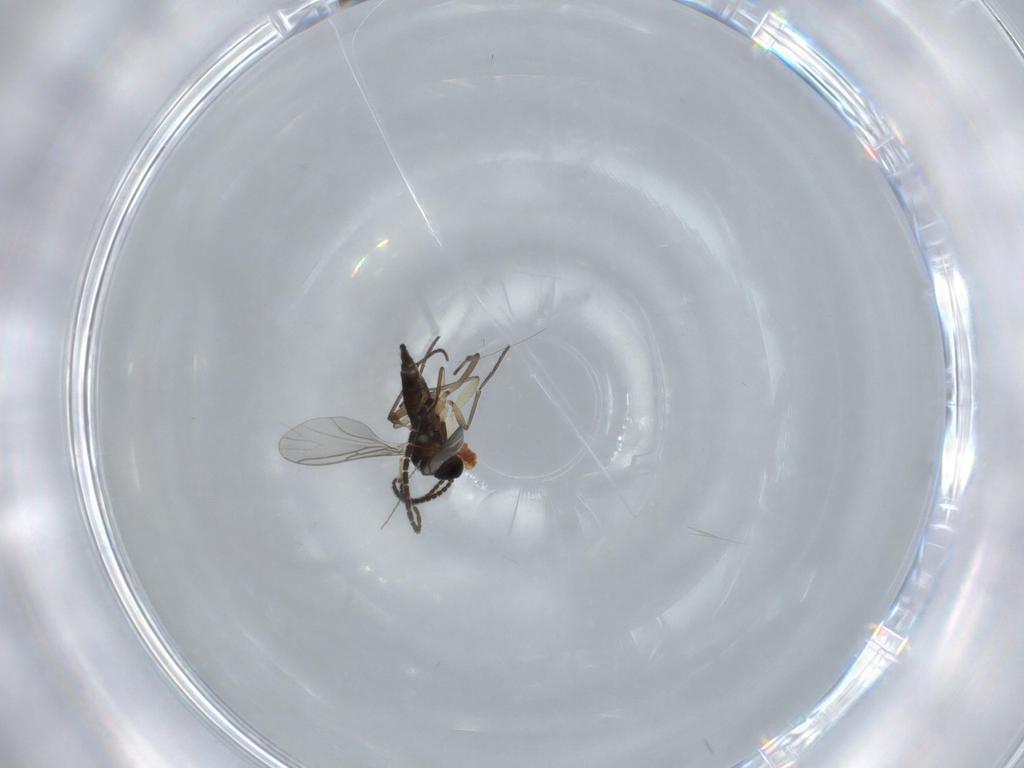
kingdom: Animalia
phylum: Arthropoda
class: Insecta
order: Diptera
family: Sciaridae
